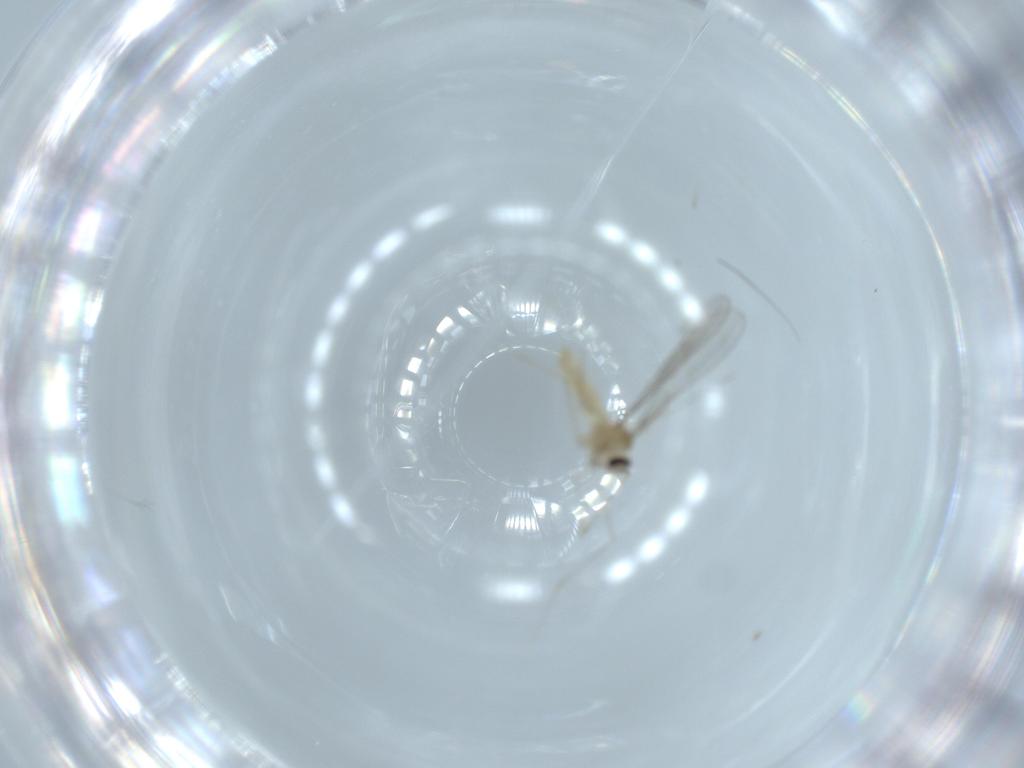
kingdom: Animalia
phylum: Arthropoda
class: Insecta
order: Diptera
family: Cecidomyiidae
